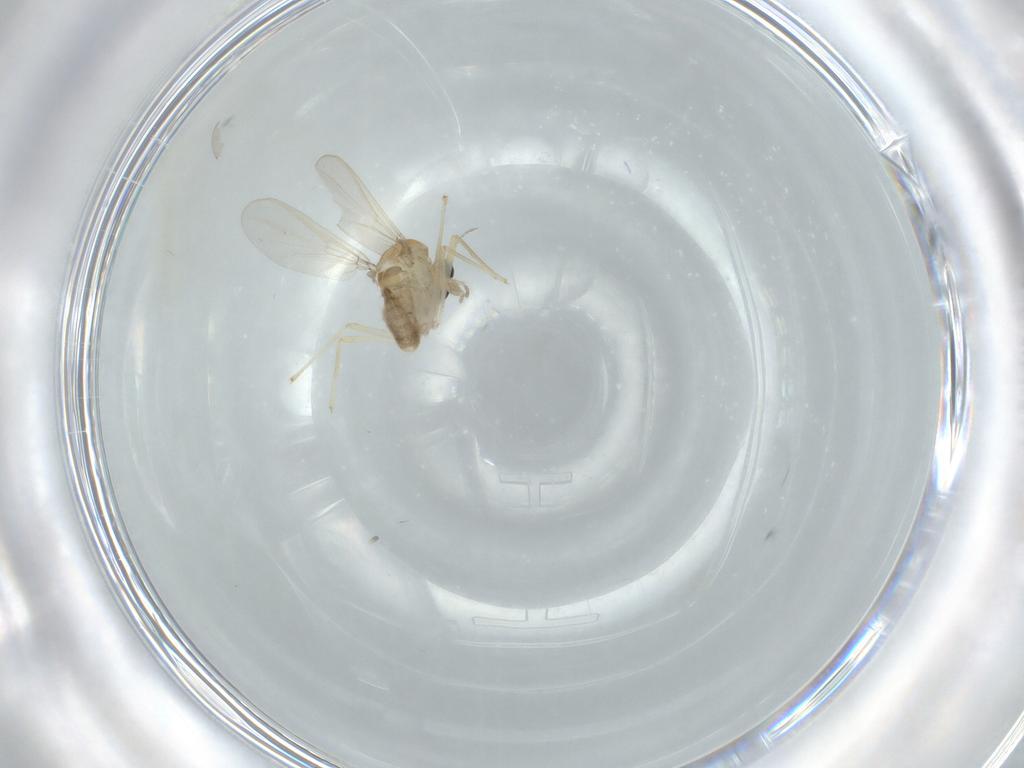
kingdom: Animalia
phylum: Arthropoda
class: Insecta
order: Diptera
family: Chironomidae
